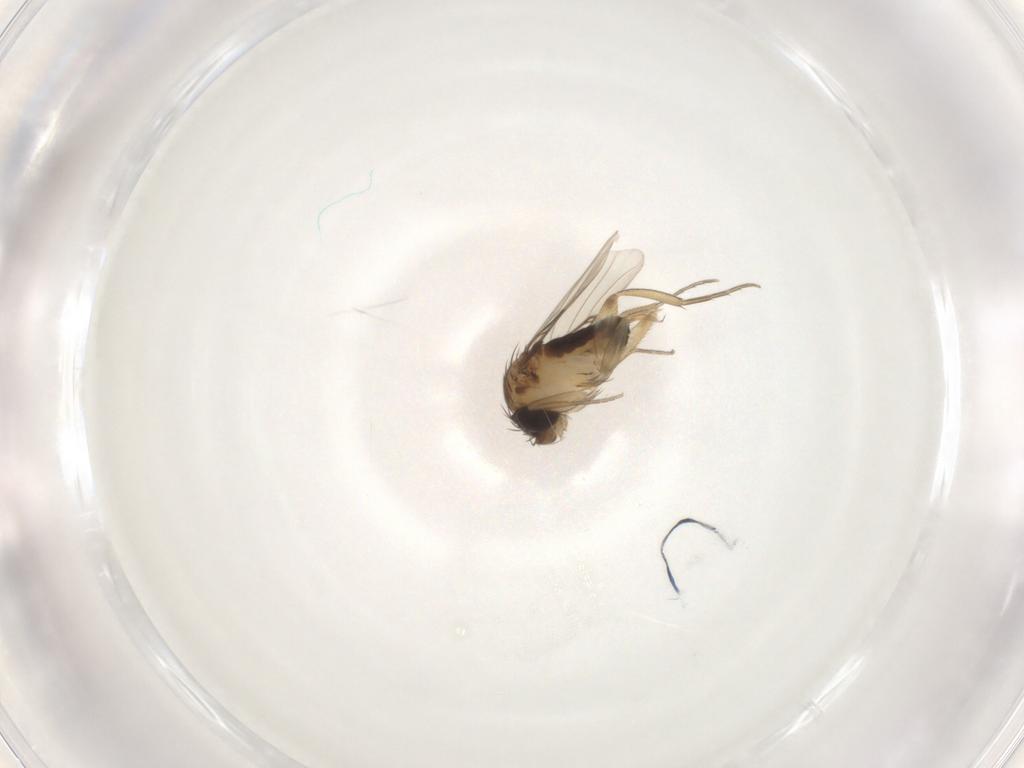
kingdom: Animalia
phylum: Arthropoda
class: Insecta
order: Diptera
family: Phoridae
